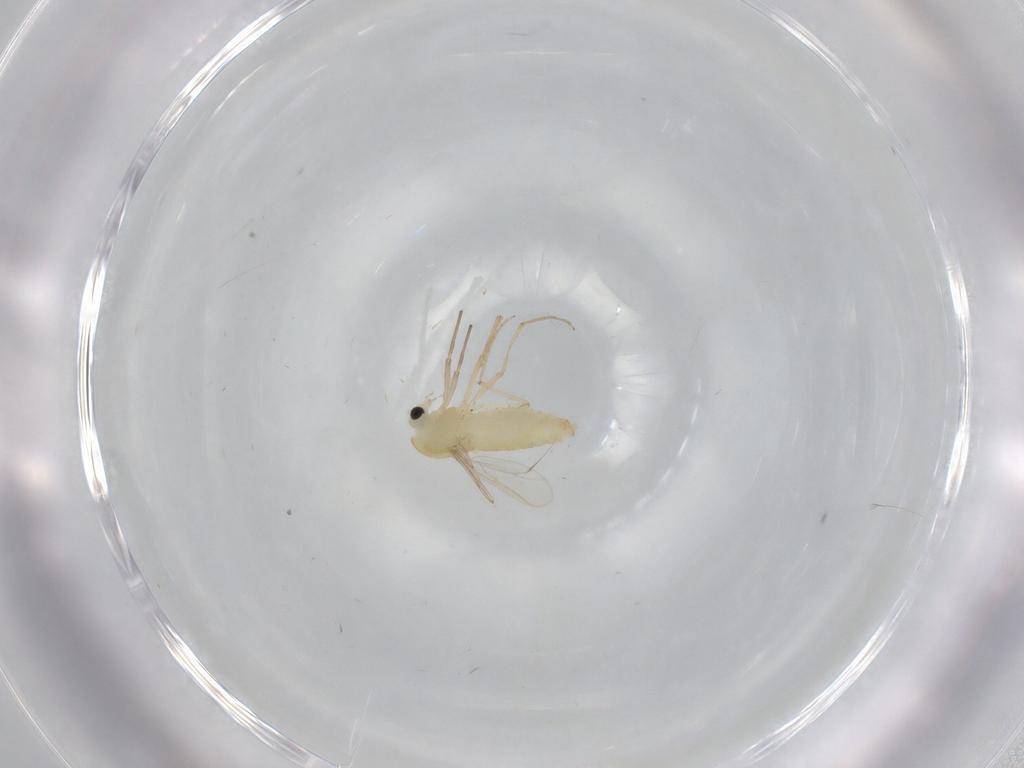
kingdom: Animalia
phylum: Arthropoda
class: Insecta
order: Diptera
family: Chironomidae
